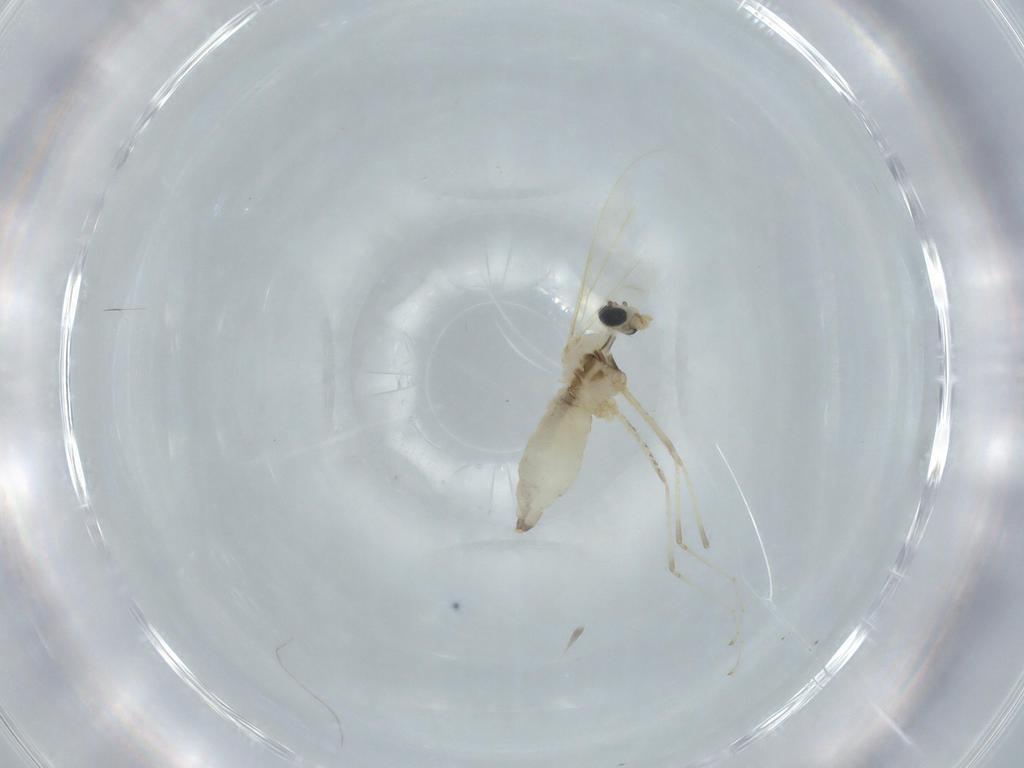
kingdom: Animalia
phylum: Arthropoda
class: Insecta
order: Diptera
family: Cecidomyiidae
